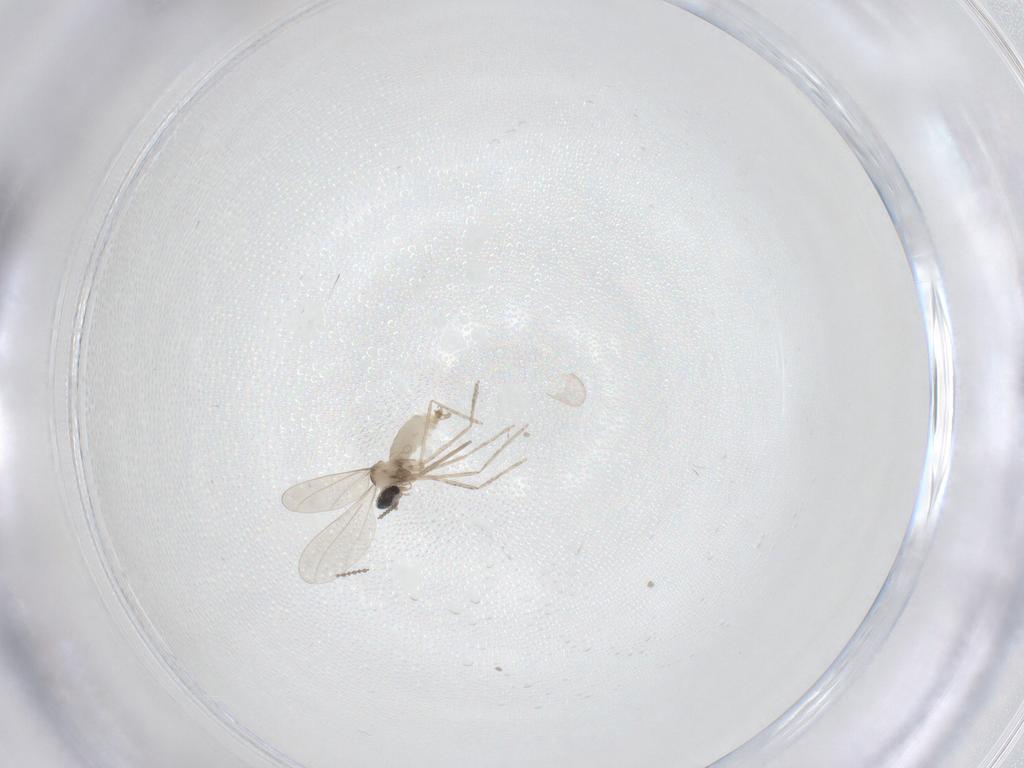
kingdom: Animalia
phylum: Arthropoda
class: Insecta
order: Diptera
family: Cecidomyiidae
